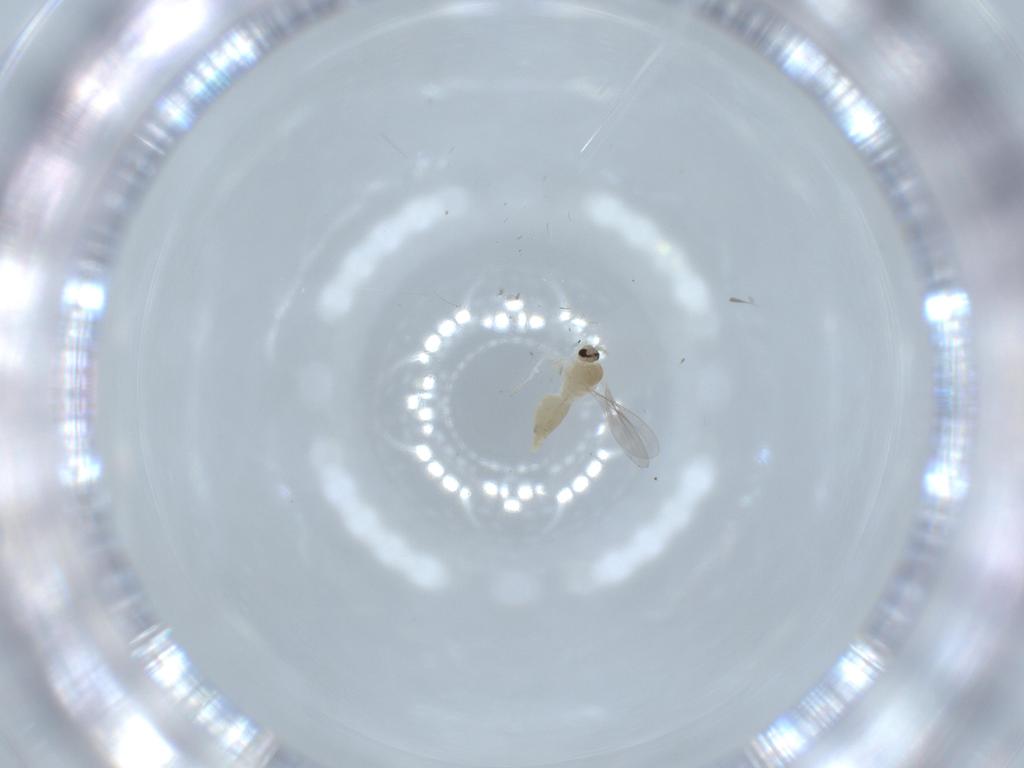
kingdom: Animalia
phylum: Arthropoda
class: Insecta
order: Diptera
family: Cecidomyiidae
